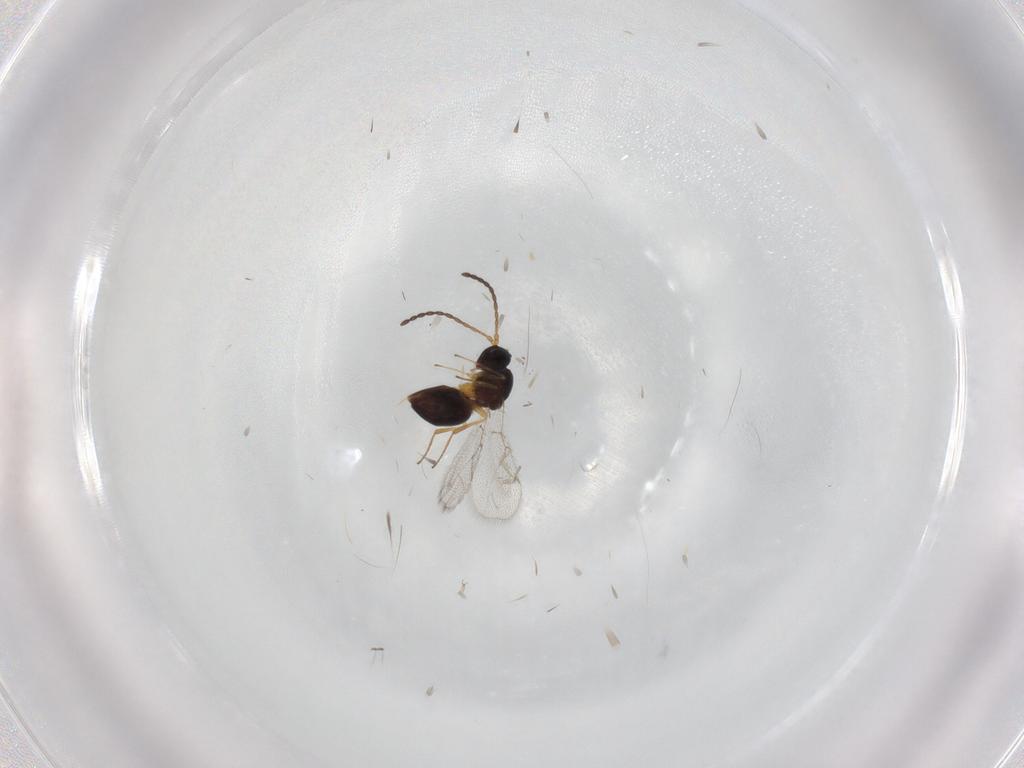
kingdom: Animalia
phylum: Arthropoda
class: Insecta
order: Hymenoptera
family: Figitidae
